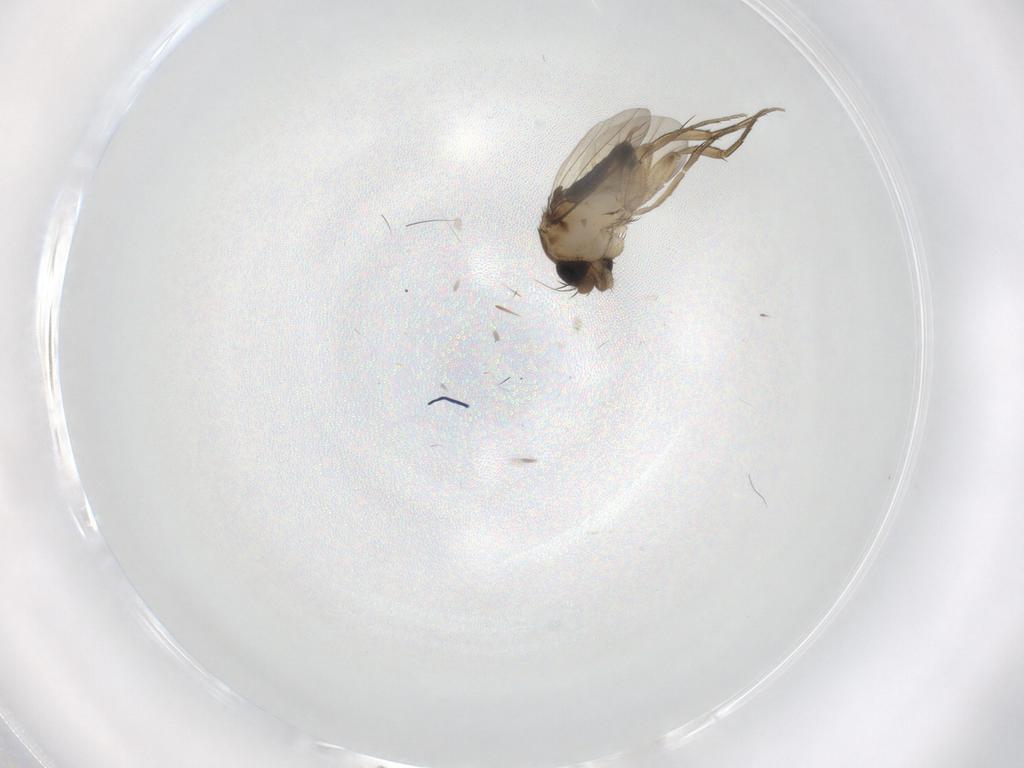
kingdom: Animalia
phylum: Arthropoda
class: Insecta
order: Diptera
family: Phoridae
